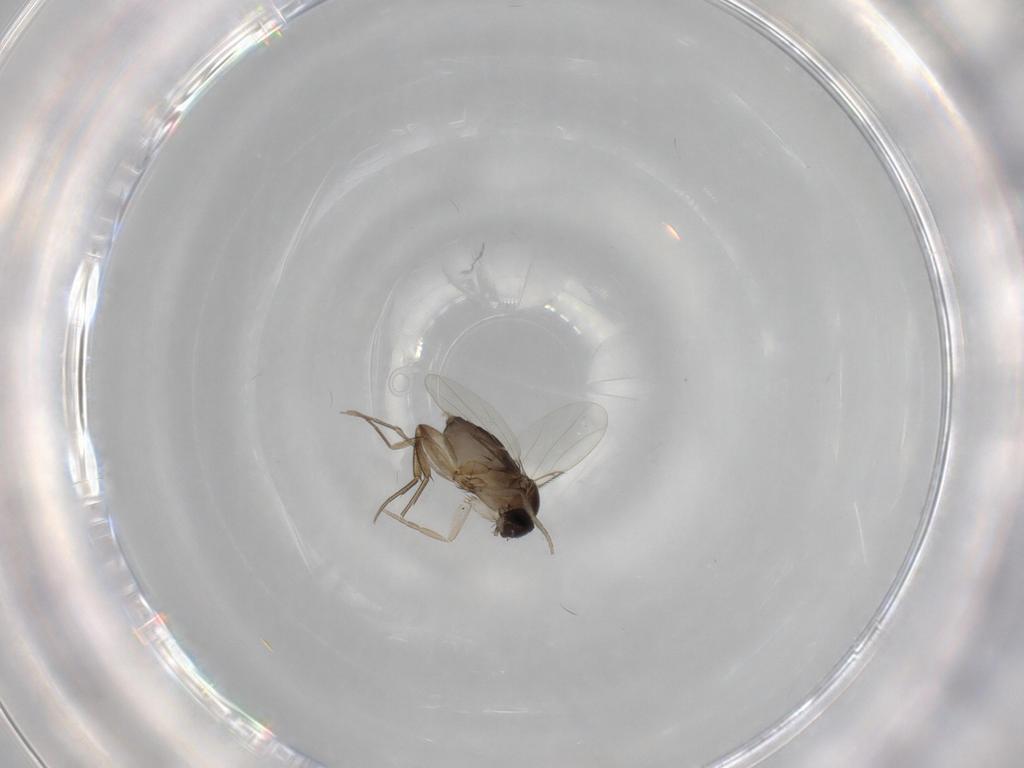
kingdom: Animalia
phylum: Arthropoda
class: Insecta
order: Diptera
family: Phoridae
